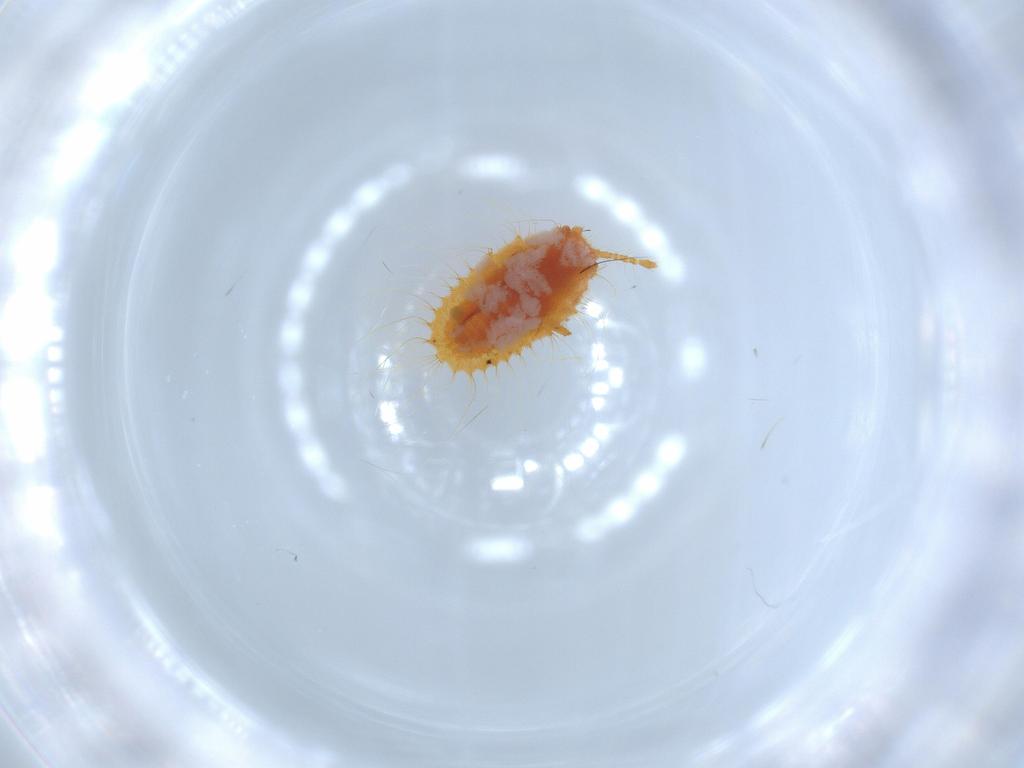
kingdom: Animalia
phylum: Arthropoda
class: Insecta
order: Hemiptera
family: Coccoidea_incertae_sedis
